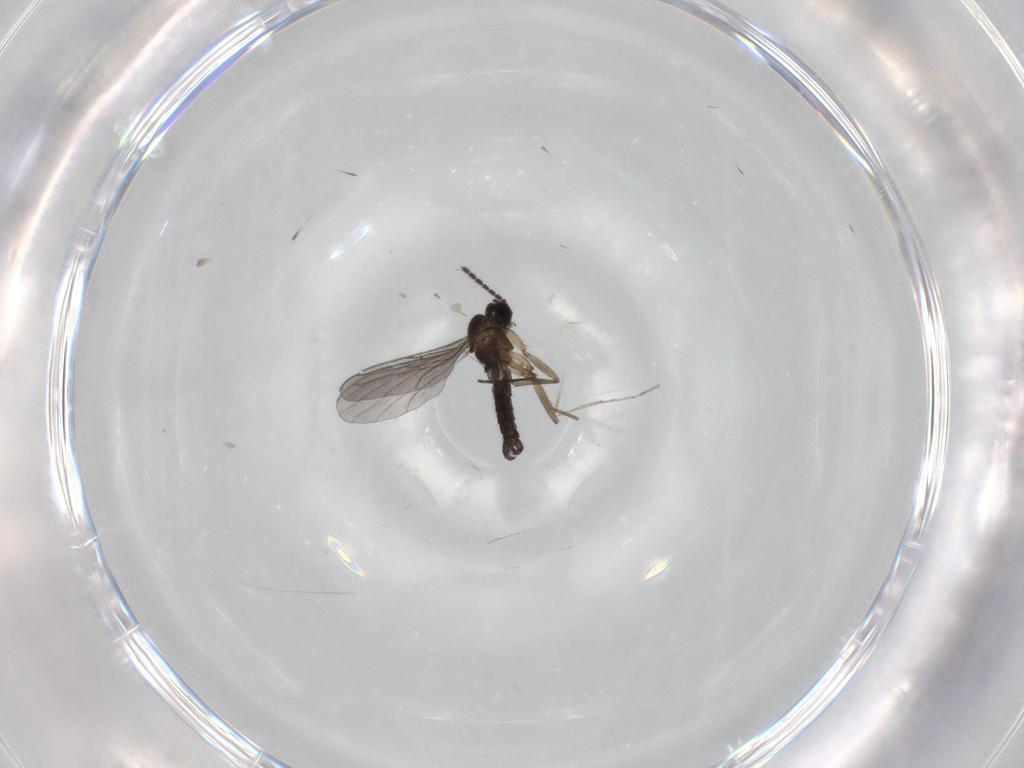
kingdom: Animalia
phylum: Arthropoda
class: Insecta
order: Diptera
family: Sciaridae
